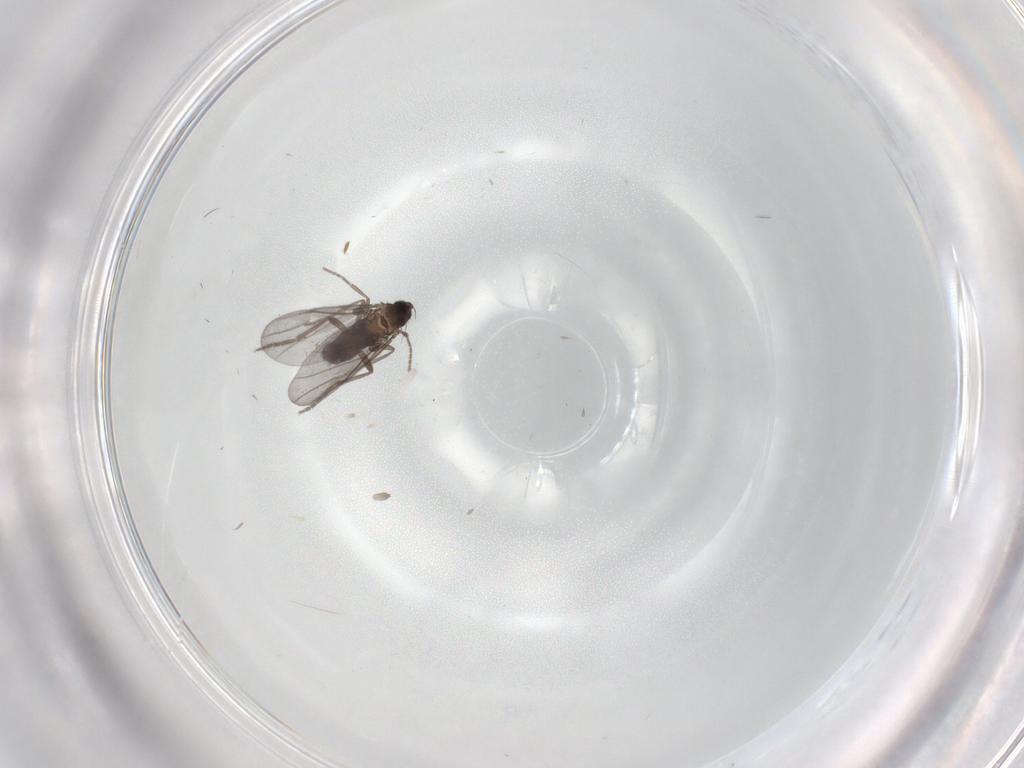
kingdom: Animalia
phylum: Arthropoda
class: Insecta
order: Diptera
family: Phoridae
